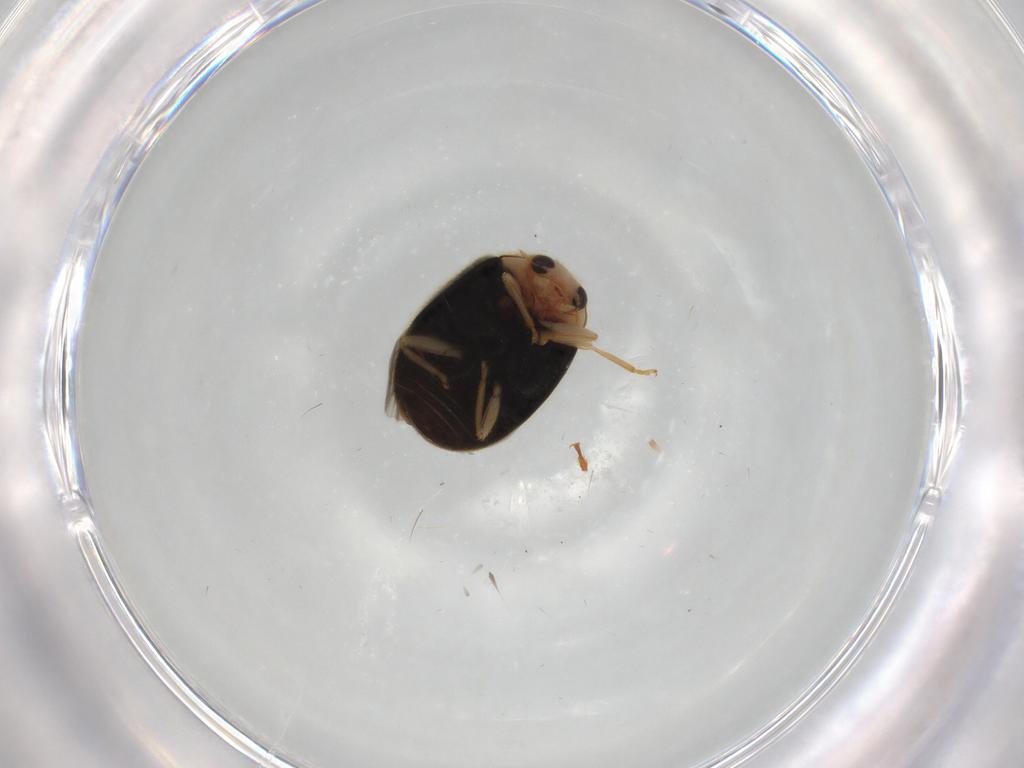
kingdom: Animalia
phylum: Arthropoda
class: Insecta
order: Coleoptera
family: Coccinellidae
